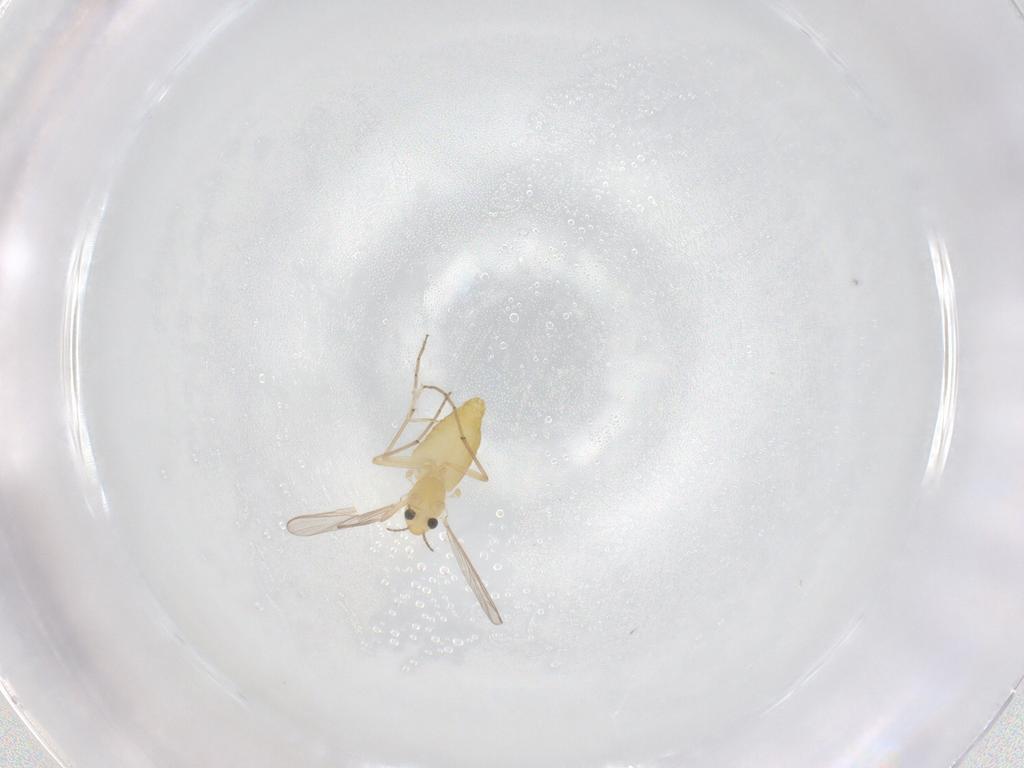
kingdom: Animalia
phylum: Arthropoda
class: Insecta
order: Diptera
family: Chironomidae
